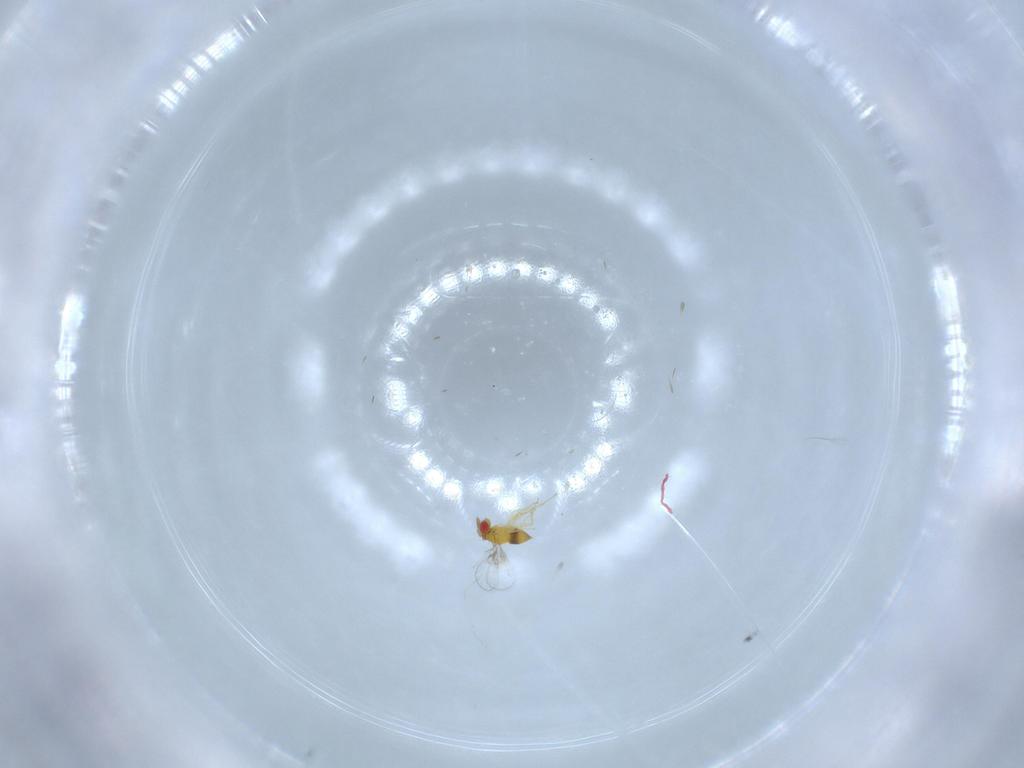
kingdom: Animalia
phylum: Arthropoda
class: Insecta
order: Hymenoptera
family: Trichogrammatidae
